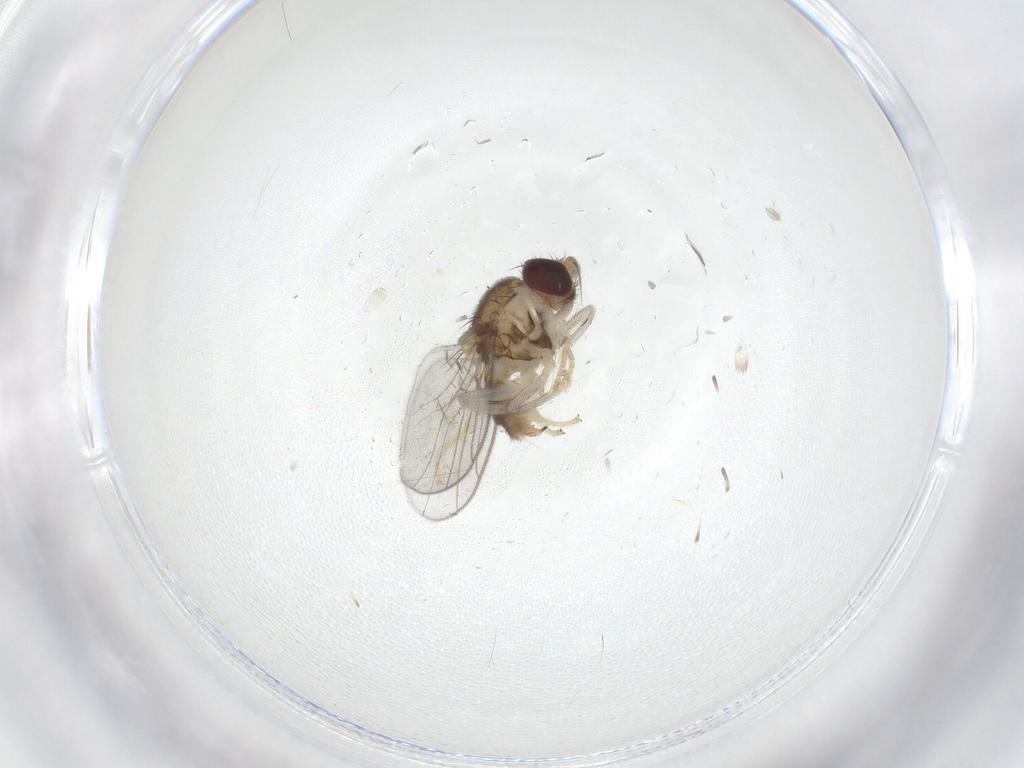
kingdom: Animalia
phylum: Arthropoda
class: Insecta
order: Diptera
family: Chloropidae
